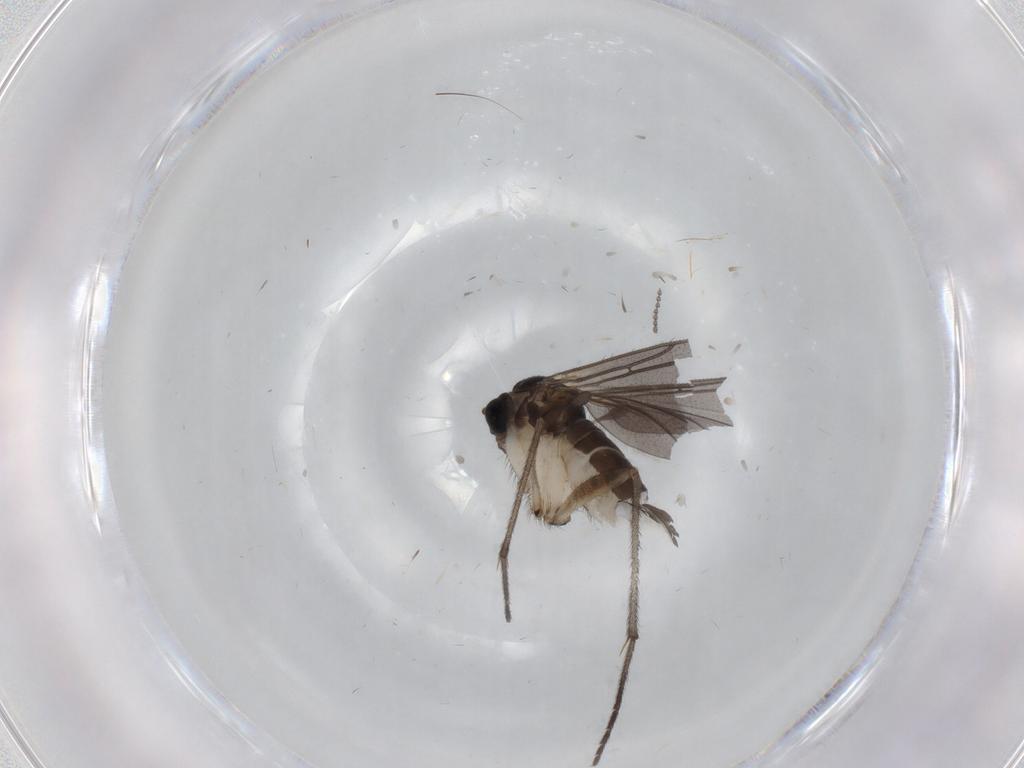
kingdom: Animalia
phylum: Arthropoda
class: Insecta
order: Diptera
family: Sciaridae
